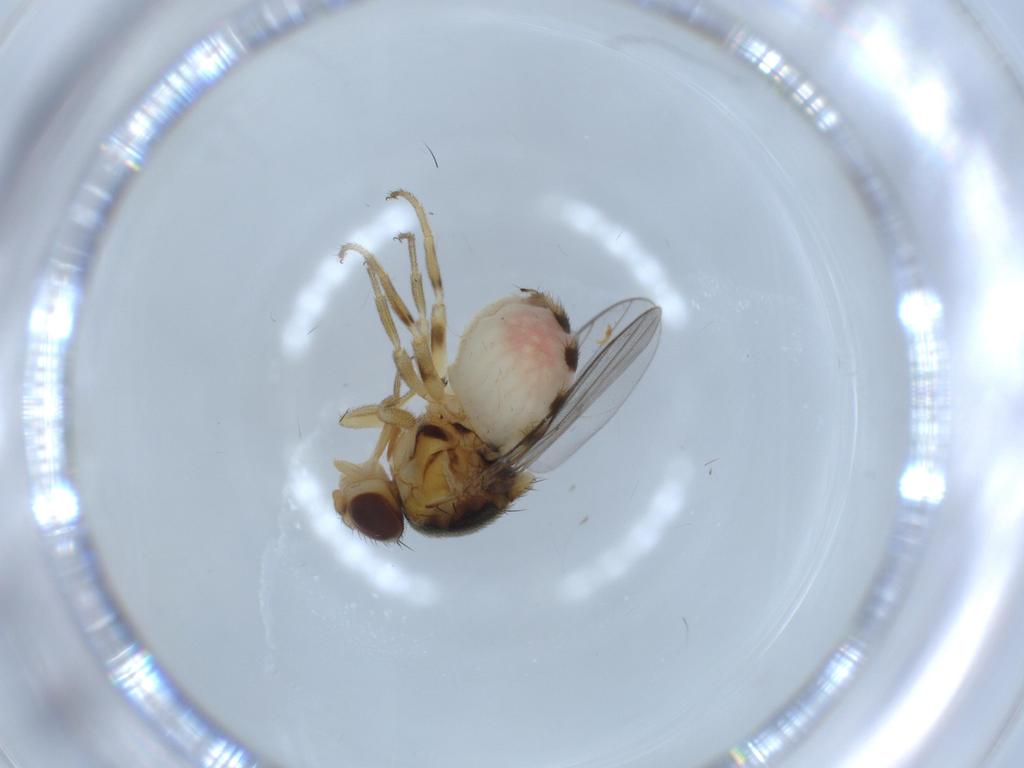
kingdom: Animalia
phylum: Arthropoda
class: Insecta
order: Diptera
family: Chloropidae
